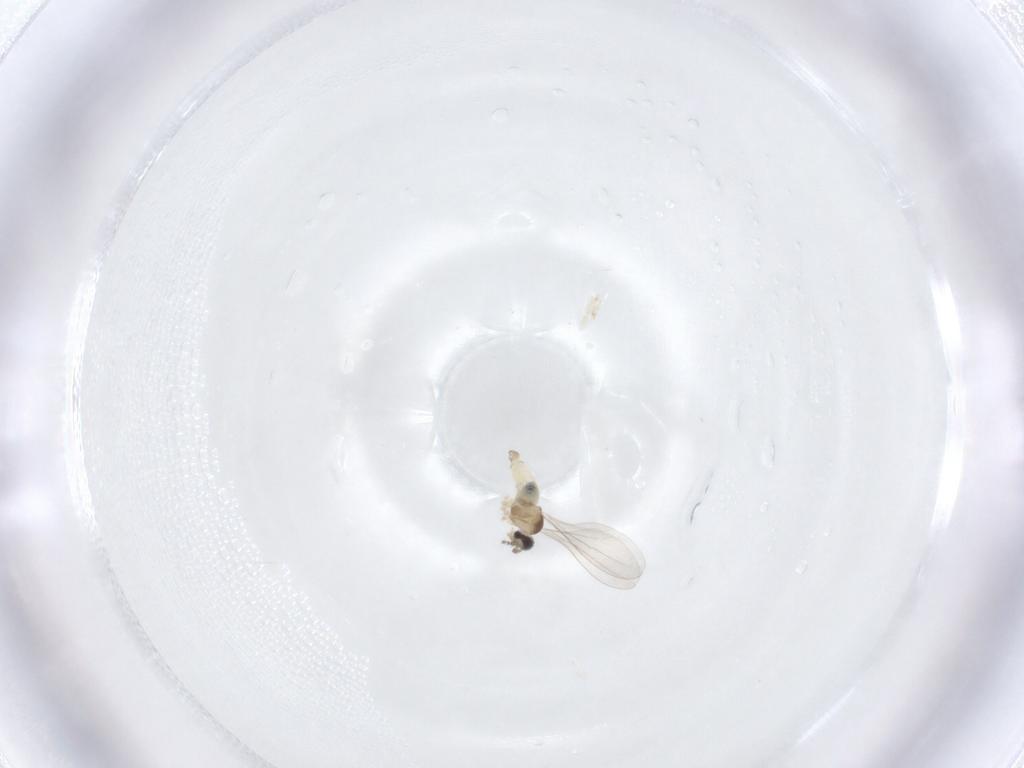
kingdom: Animalia
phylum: Arthropoda
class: Insecta
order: Diptera
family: Cecidomyiidae
